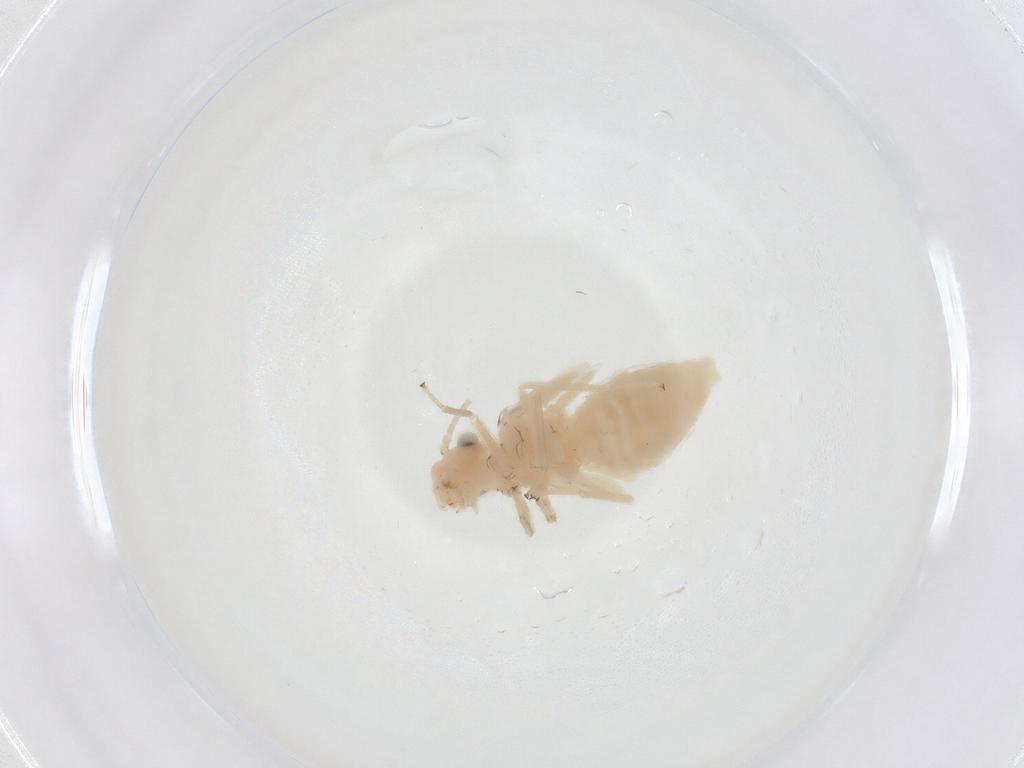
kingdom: Animalia
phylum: Arthropoda
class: Insecta
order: Psocodea
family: Caeciliusidae
